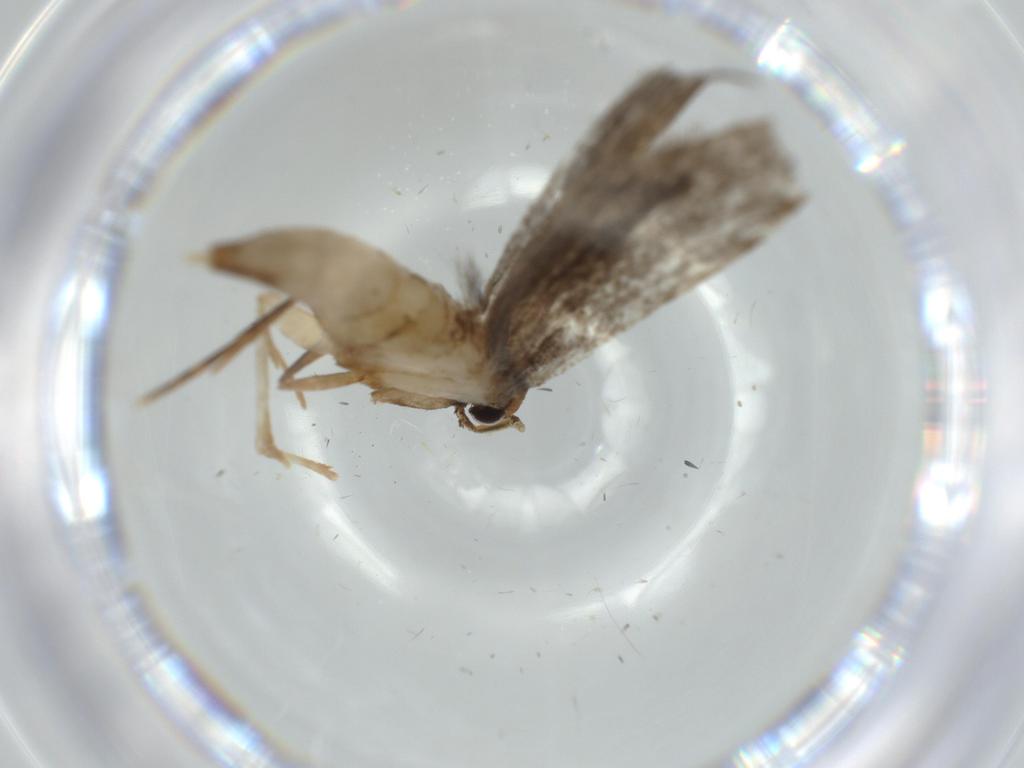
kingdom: Animalia
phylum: Arthropoda
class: Insecta
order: Lepidoptera
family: Tineidae
